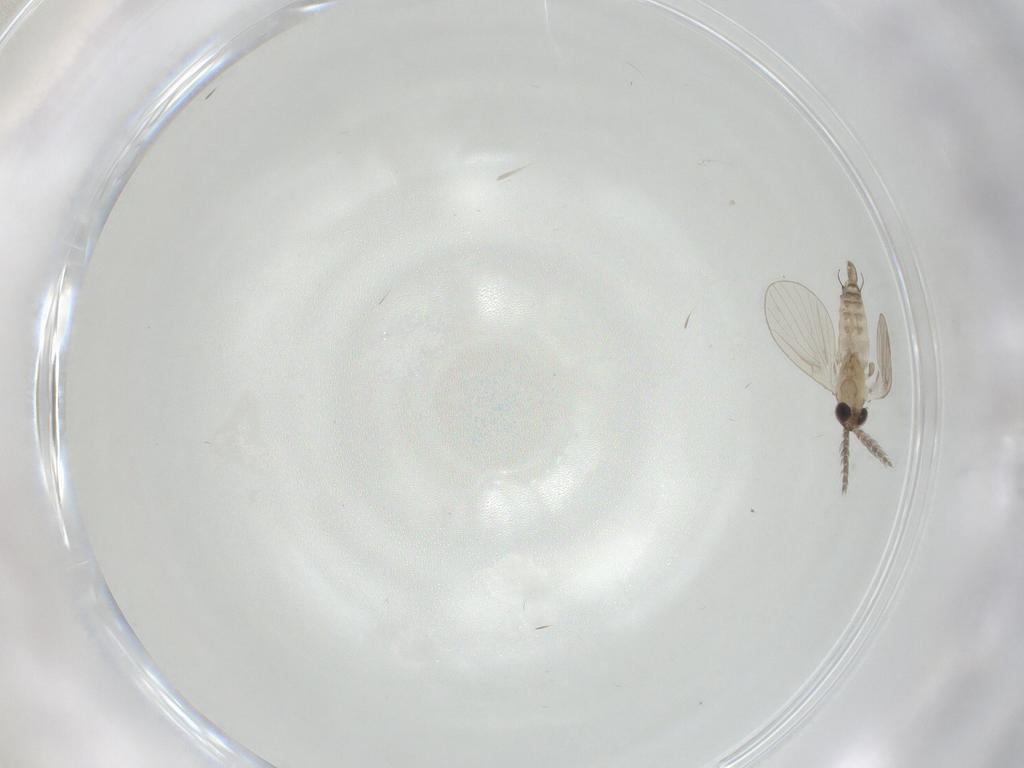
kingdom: Animalia
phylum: Arthropoda
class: Insecta
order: Diptera
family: Psychodidae
